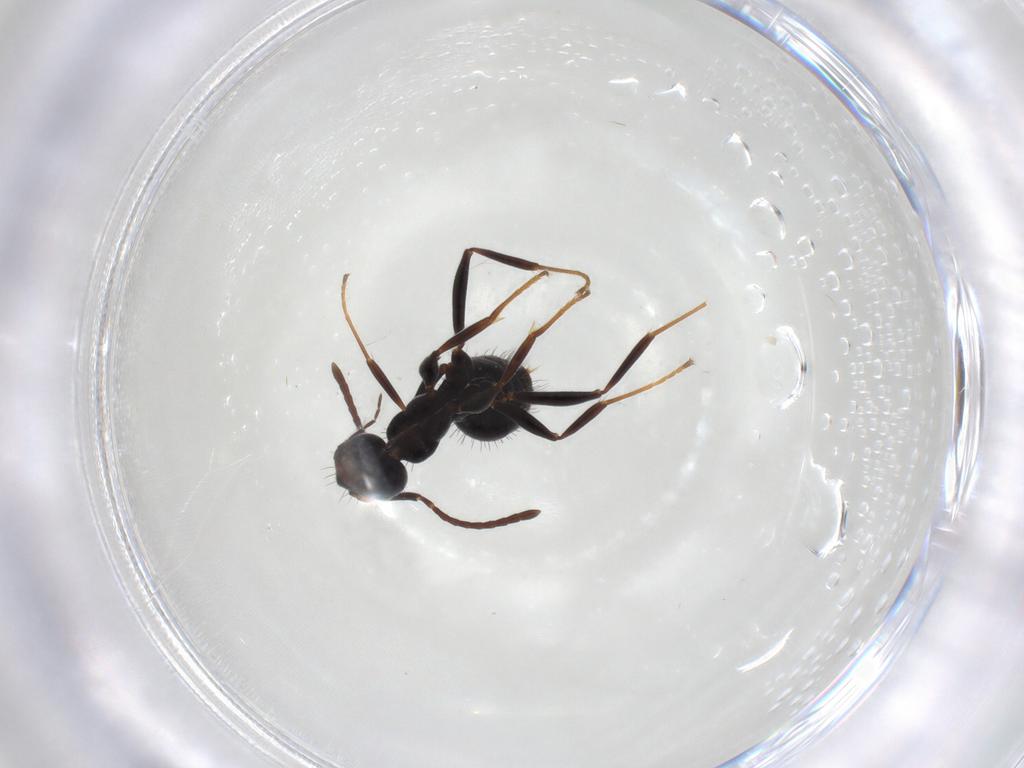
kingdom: Animalia
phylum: Arthropoda
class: Insecta
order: Hymenoptera
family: Formicidae
